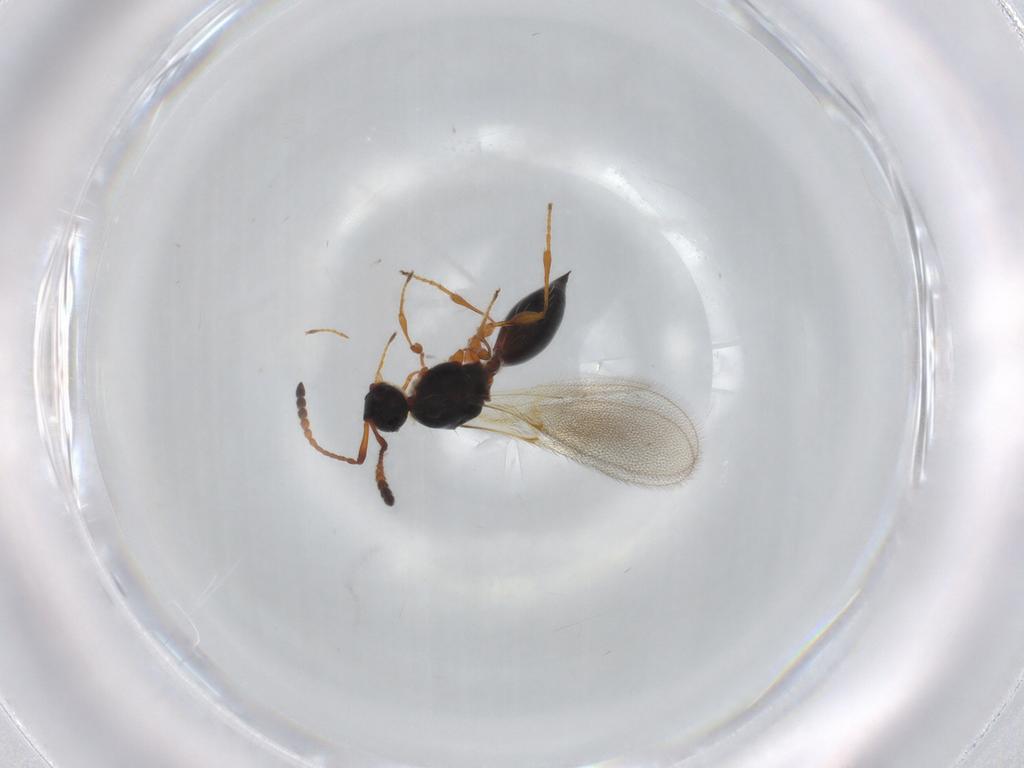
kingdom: Animalia
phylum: Arthropoda
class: Insecta
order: Hymenoptera
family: Diapriidae
